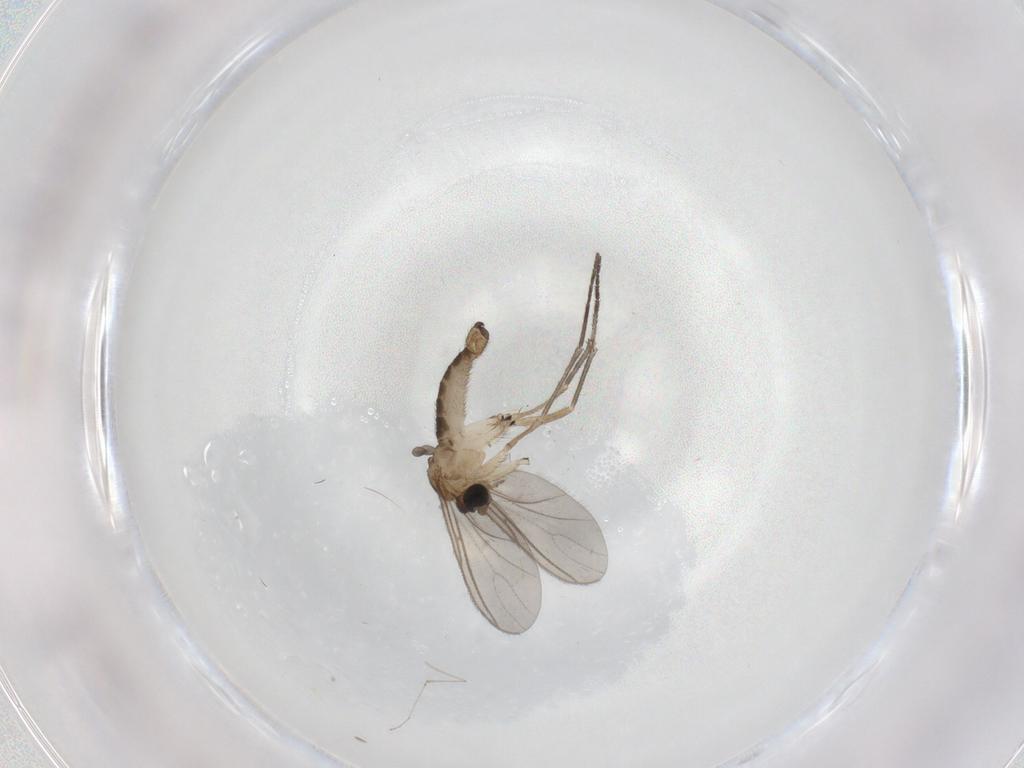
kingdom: Animalia
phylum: Arthropoda
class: Insecta
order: Diptera
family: Sciaridae
